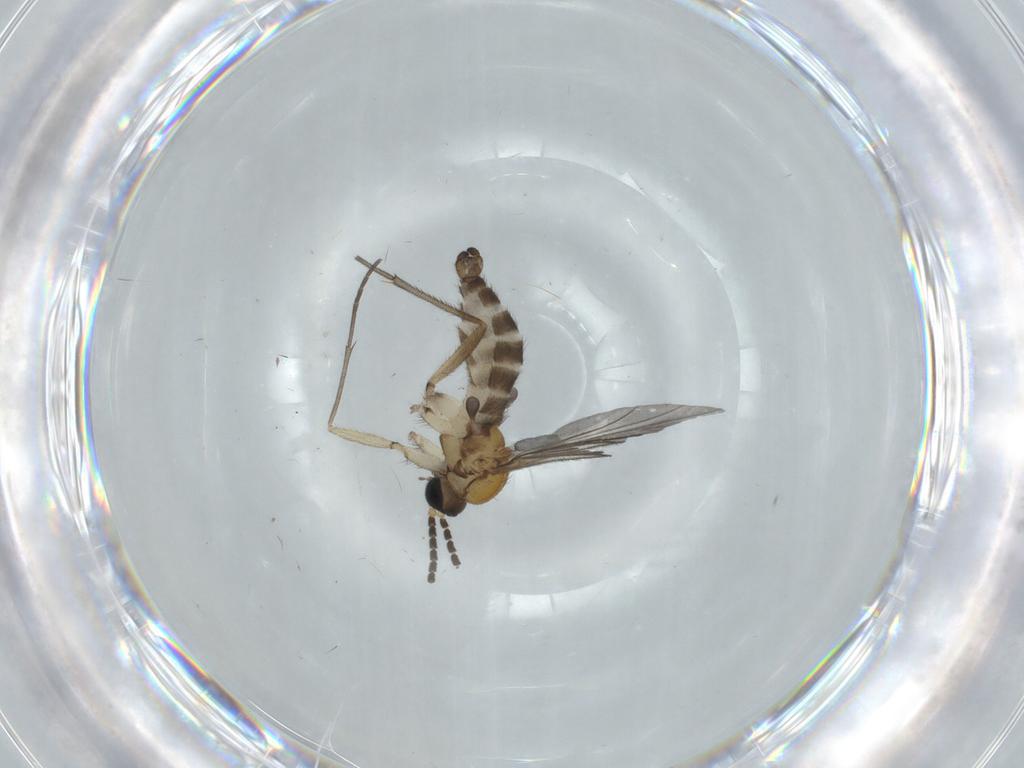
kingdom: Animalia
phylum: Arthropoda
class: Insecta
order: Diptera
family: Sciaridae
